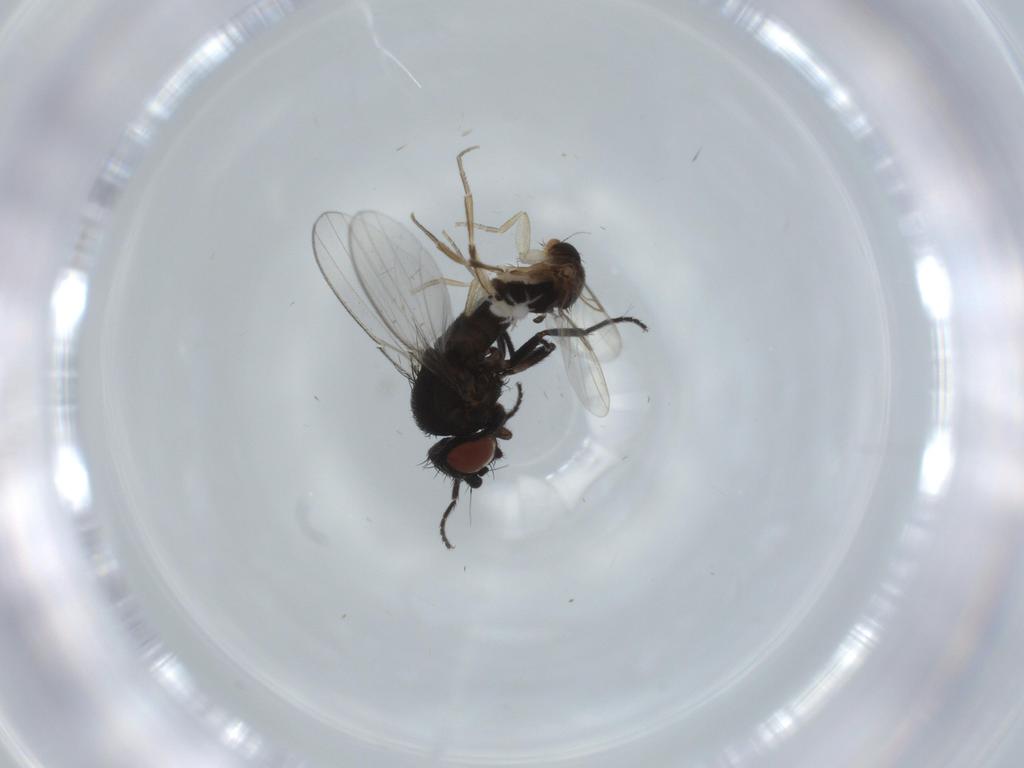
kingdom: Animalia
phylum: Arthropoda
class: Insecta
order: Diptera
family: Phoridae
